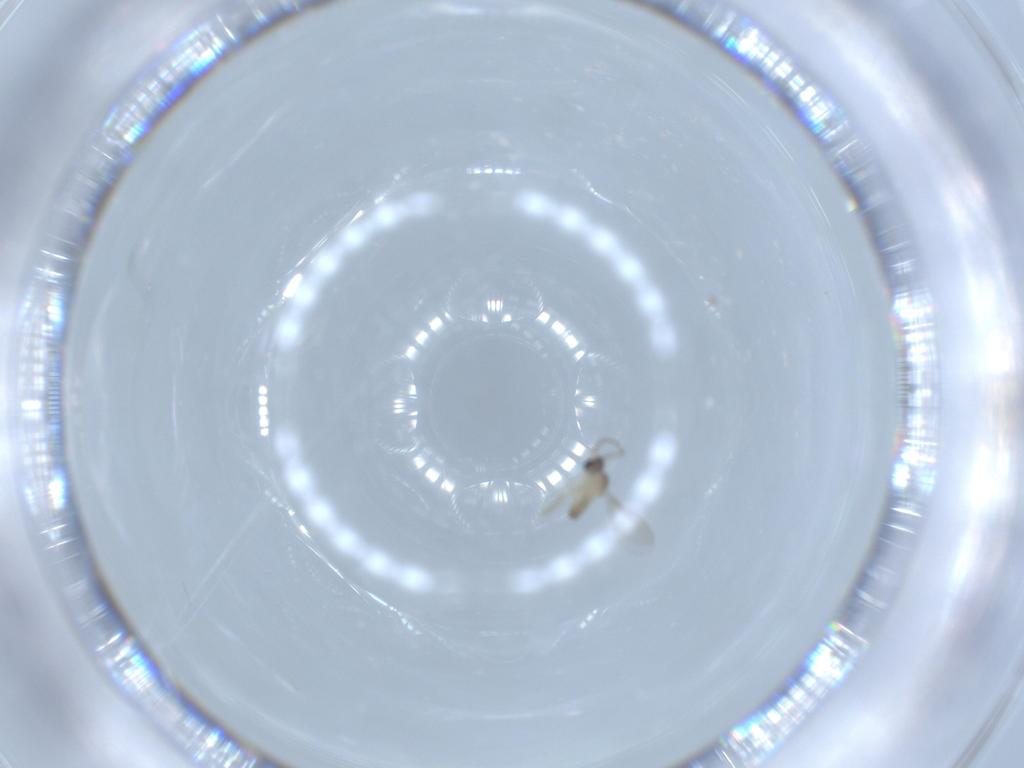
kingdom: Animalia
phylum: Arthropoda
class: Insecta
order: Diptera
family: Cecidomyiidae
